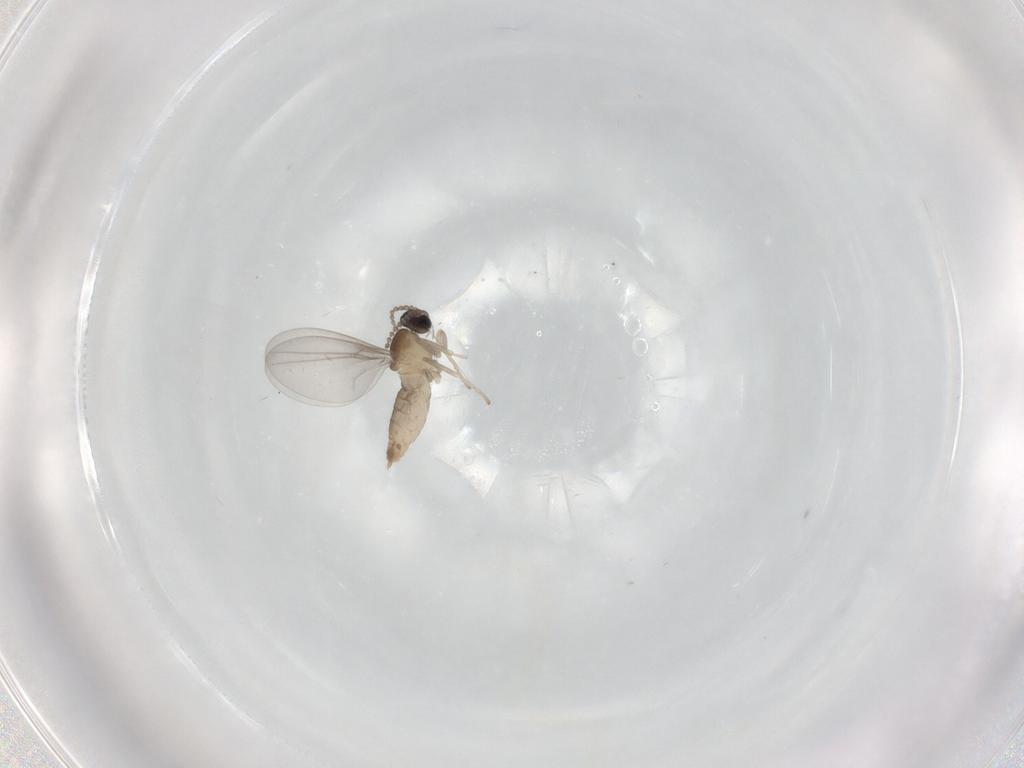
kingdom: Animalia
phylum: Arthropoda
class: Insecta
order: Diptera
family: Cecidomyiidae
